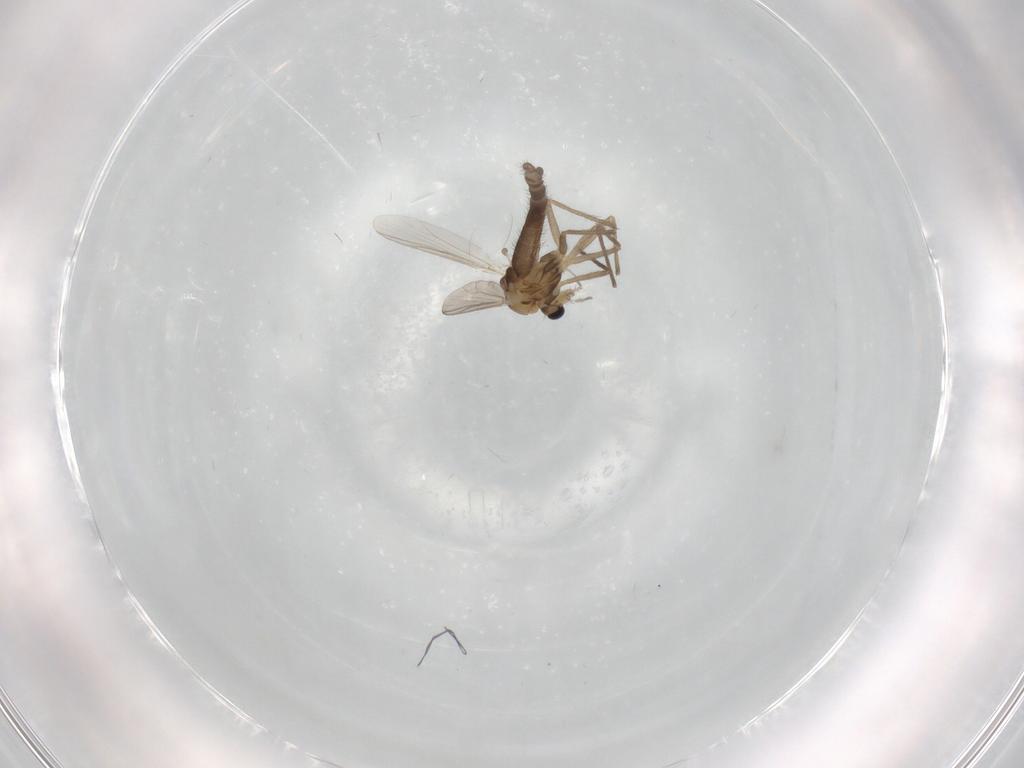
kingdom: Animalia
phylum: Arthropoda
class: Insecta
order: Diptera
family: Chironomidae
